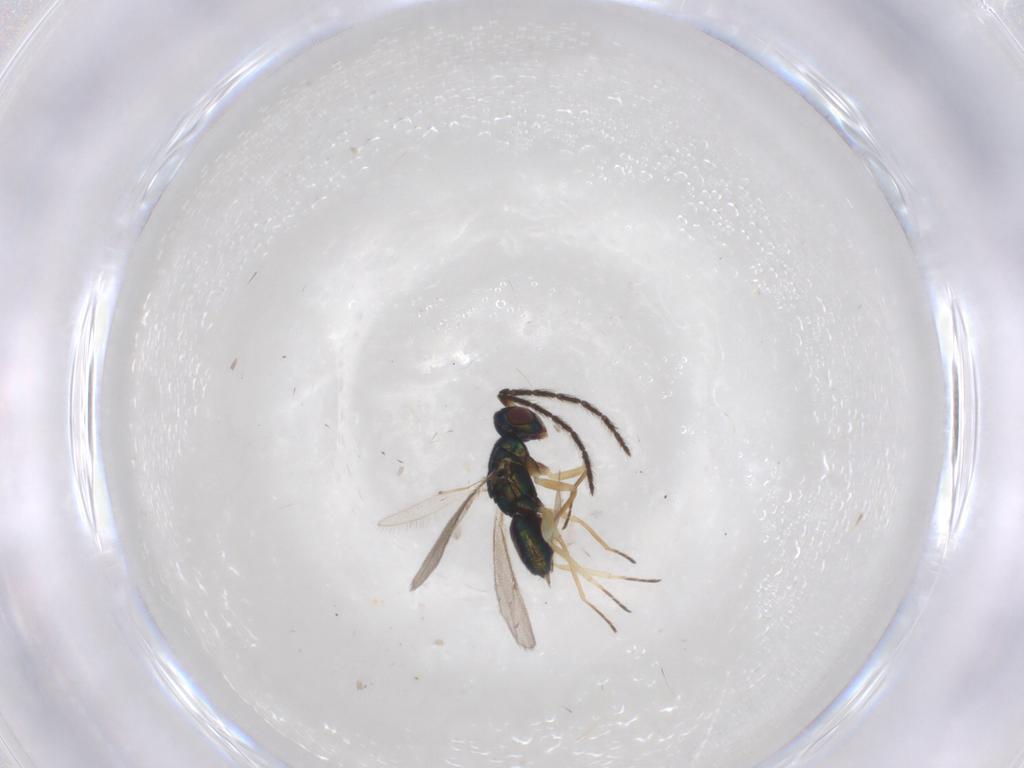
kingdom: Animalia
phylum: Arthropoda
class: Insecta
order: Hymenoptera
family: Eulophidae
